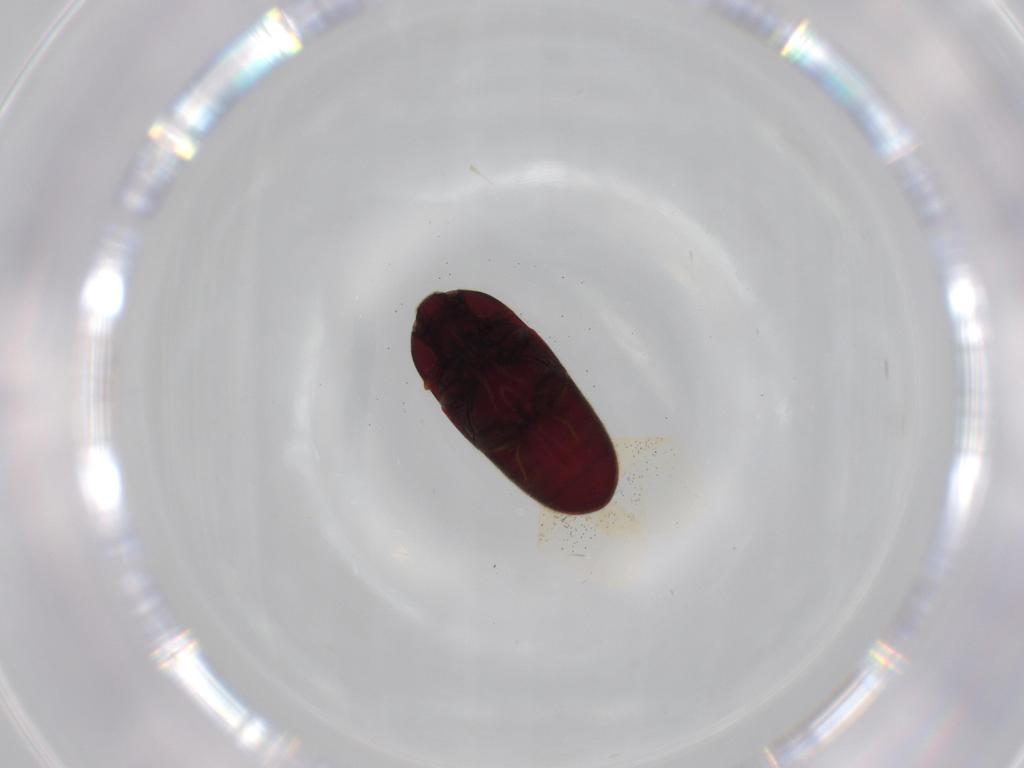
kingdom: Animalia
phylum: Arthropoda
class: Insecta
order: Coleoptera
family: Throscidae
